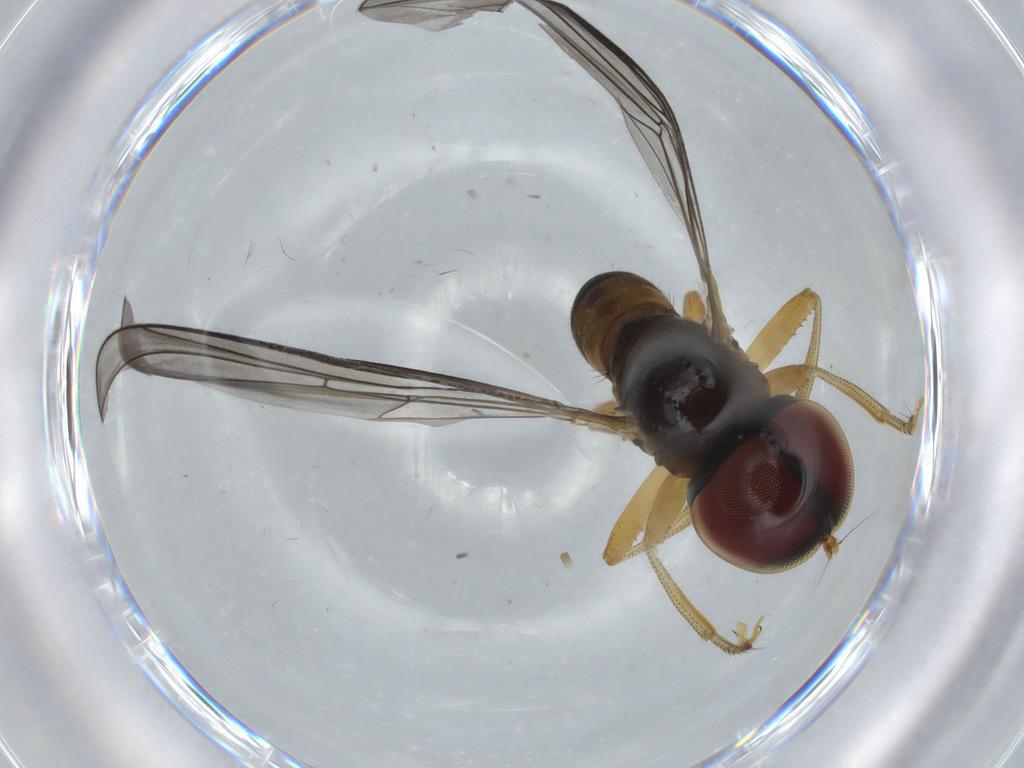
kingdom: Animalia
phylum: Arthropoda
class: Insecta
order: Diptera
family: Pipunculidae
